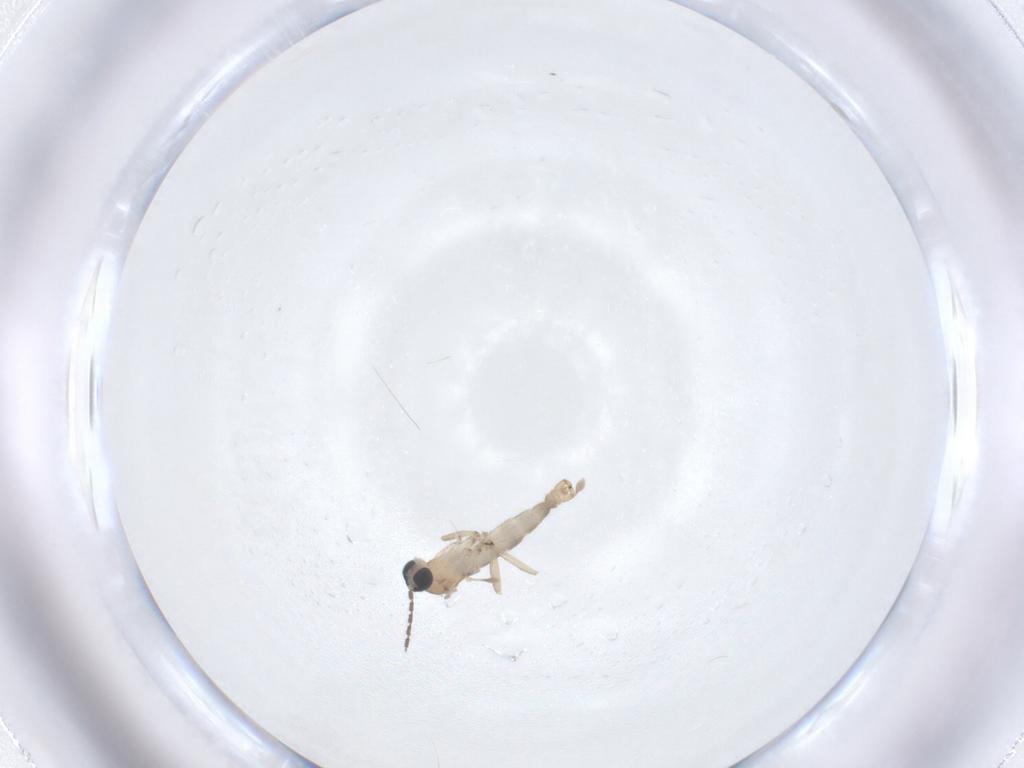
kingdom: Animalia
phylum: Arthropoda
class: Insecta
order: Diptera
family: Sciaridae
